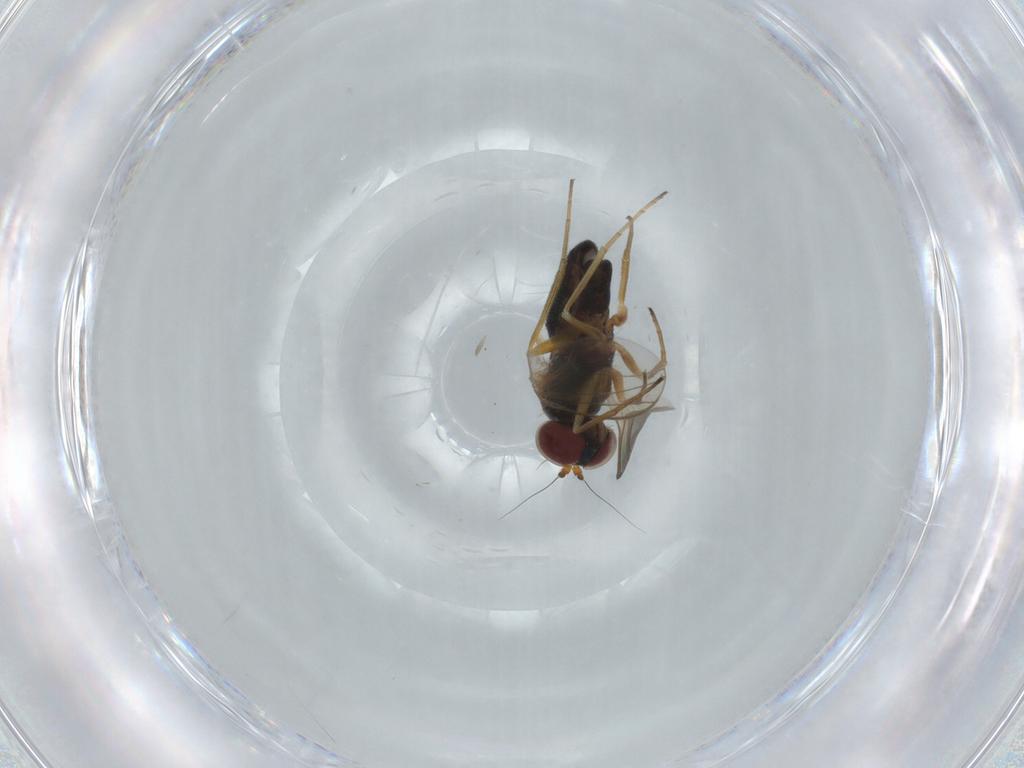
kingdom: Animalia
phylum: Arthropoda
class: Insecta
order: Diptera
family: Dolichopodidae
